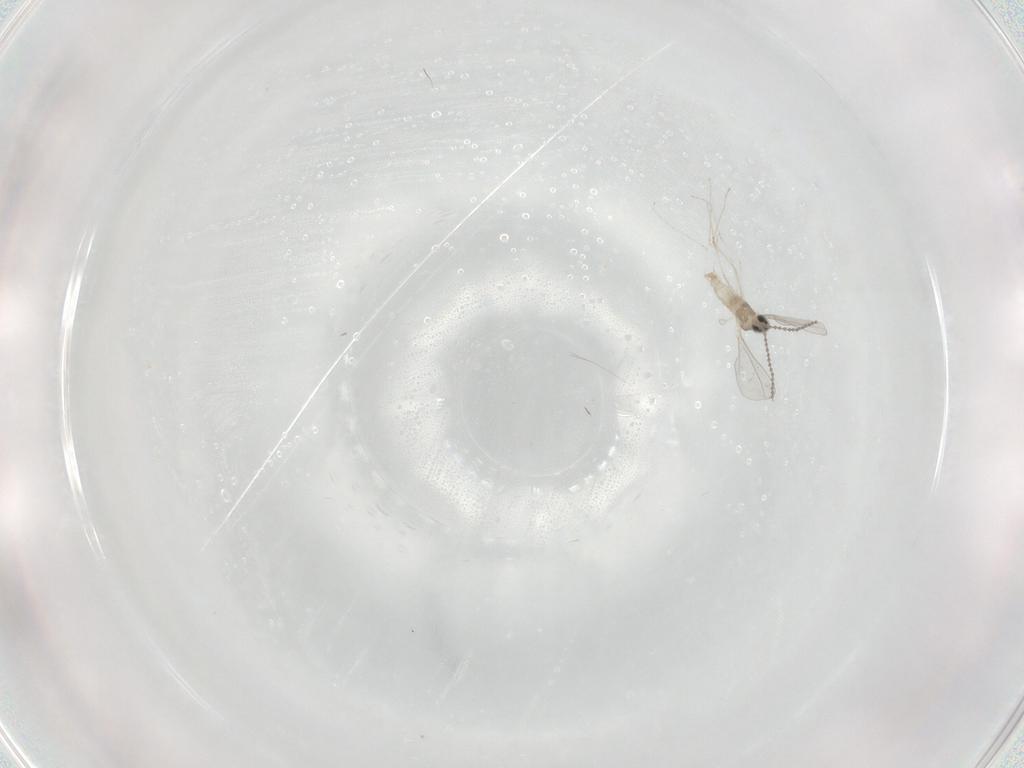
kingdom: Animalia
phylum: Arthropoda
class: Insecta
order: Diptera
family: Cecidomyiidae
